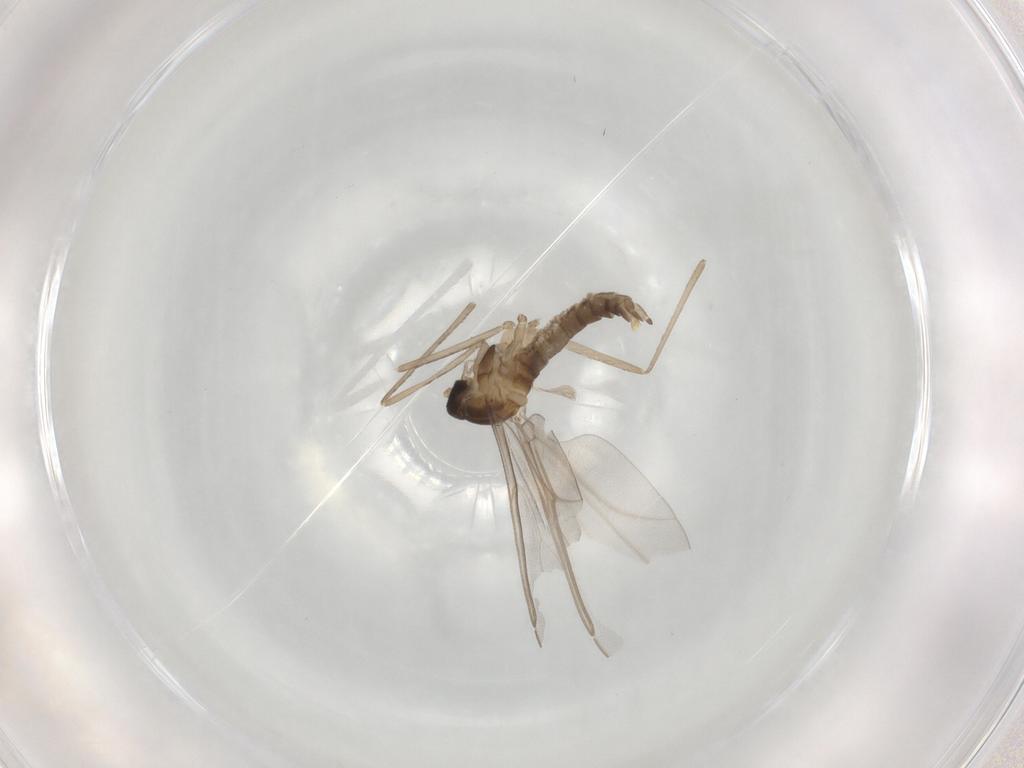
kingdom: Animalia
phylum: Arthropoda
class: Insecta
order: Diptera
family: Cecidomyiidae
